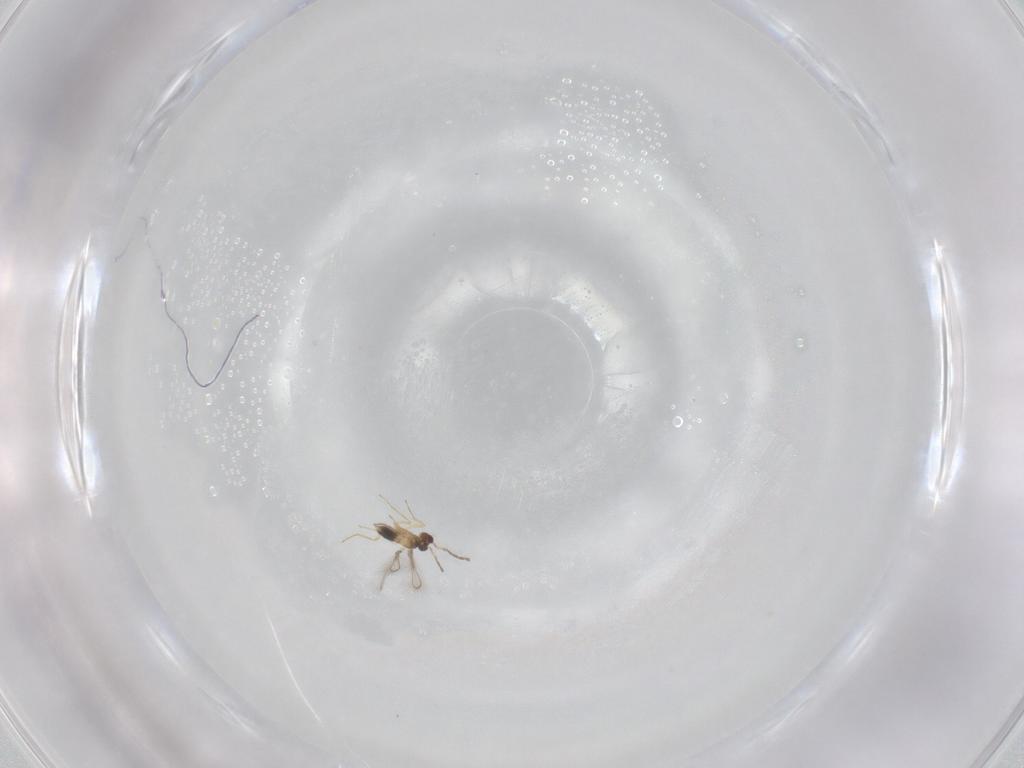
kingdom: Animalia
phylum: Arthropoda
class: Insecta
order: Hymenoptera
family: Mymaridae
